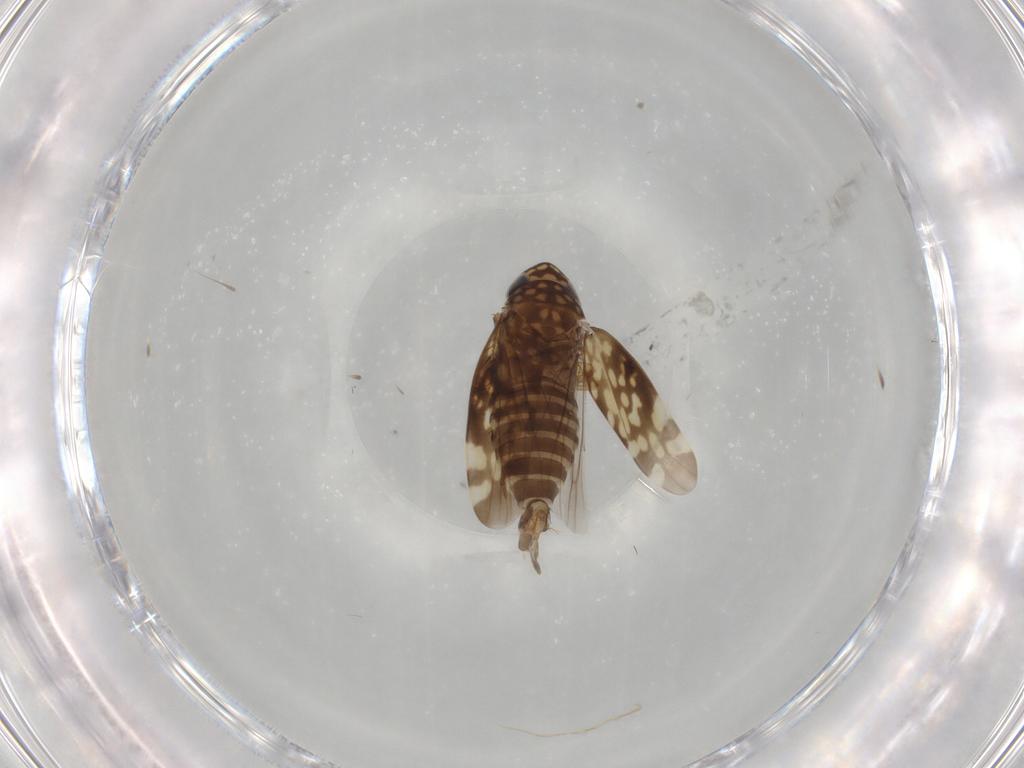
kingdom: Animalia
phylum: Arthropoda
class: Insecta
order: Hemiptera
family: Cicadellidae
